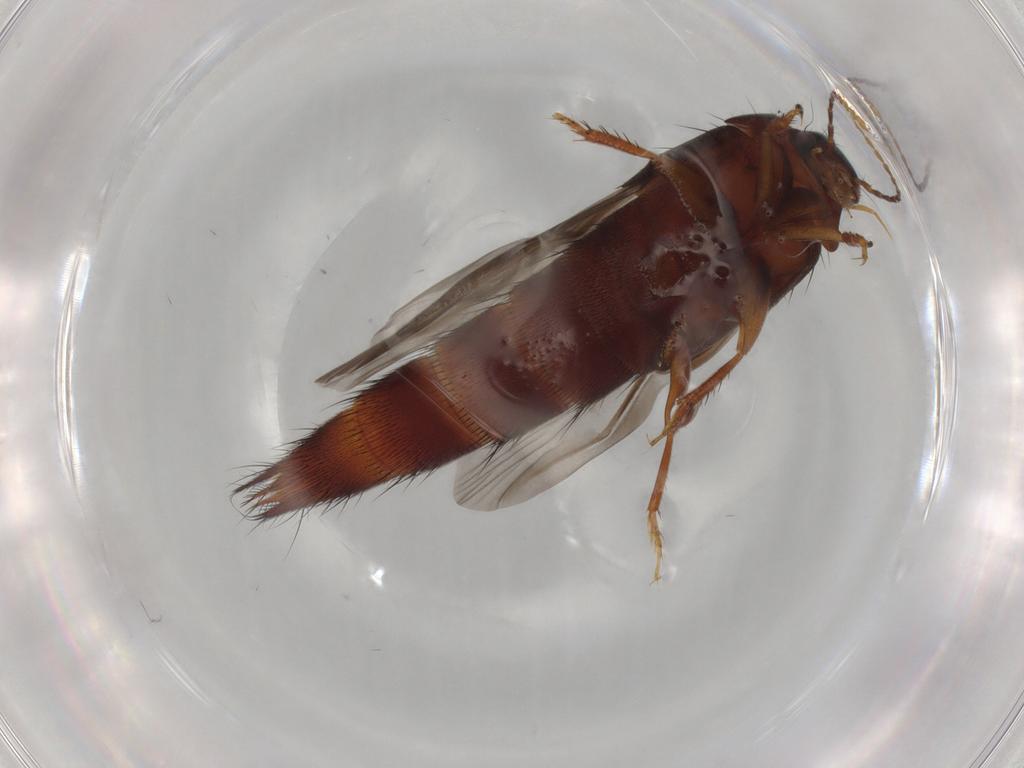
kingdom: Animalia
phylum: Arthropoda
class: Insecta
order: Coleoptera
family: Staphylinidae
